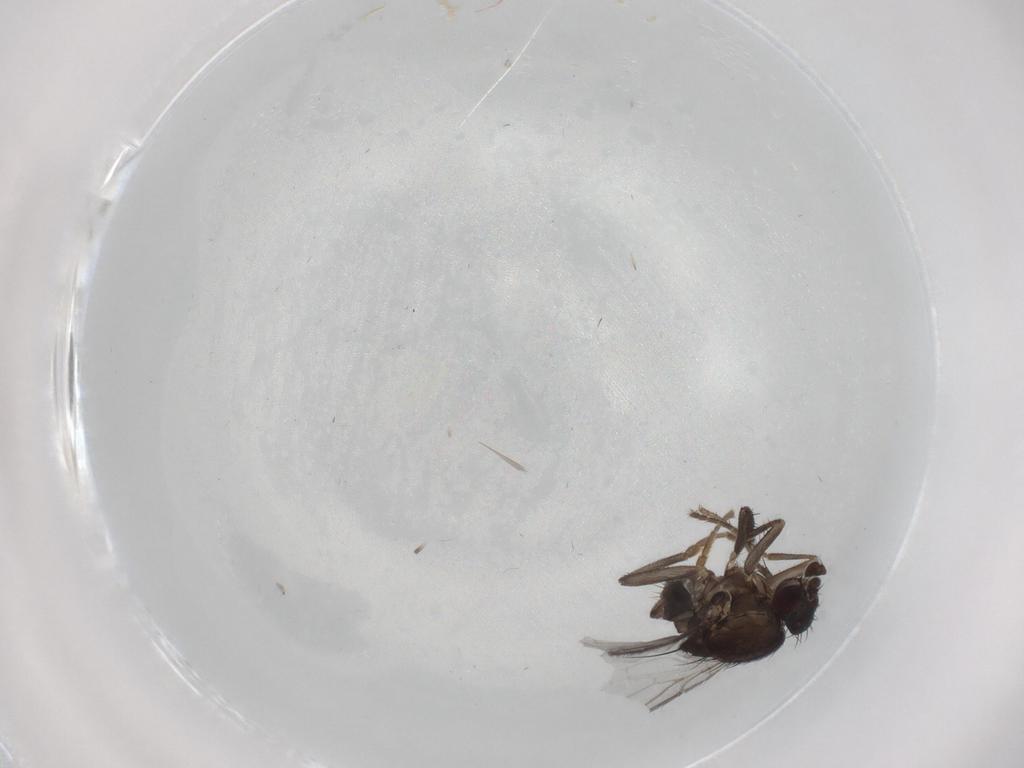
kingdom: Animalia
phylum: Arthropoda
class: Insecta
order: Diptera
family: Sphaeroceridae
